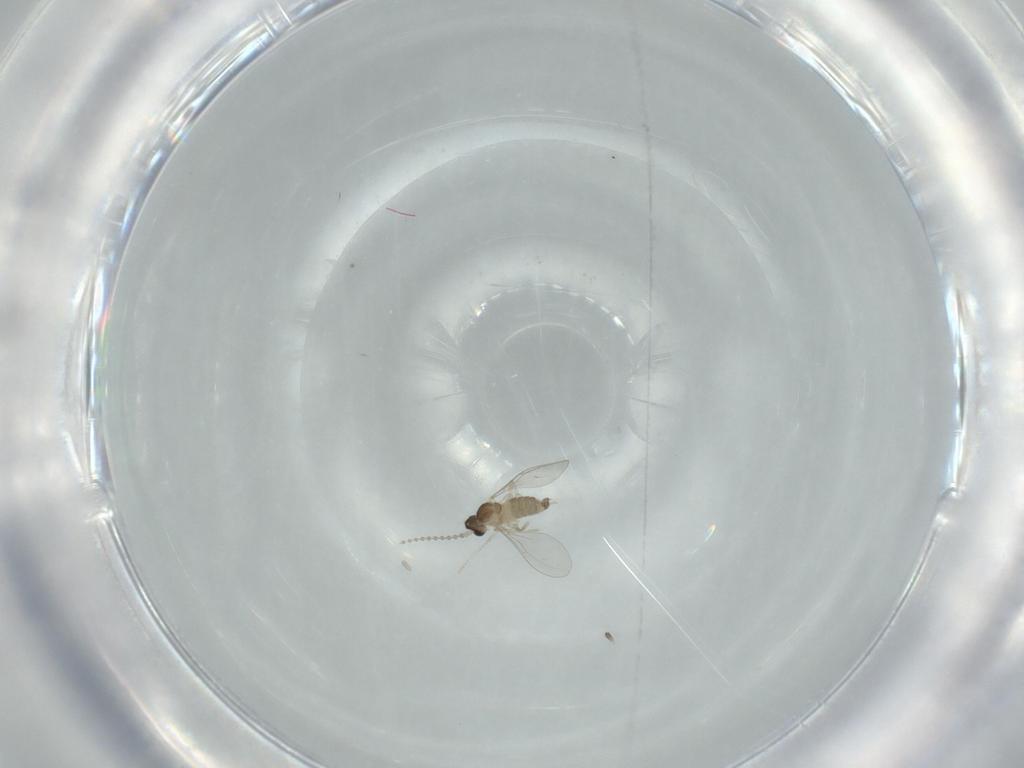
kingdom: Animalia
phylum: Arthropoda
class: Insecta
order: Diptera
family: Cecidomyiidae
